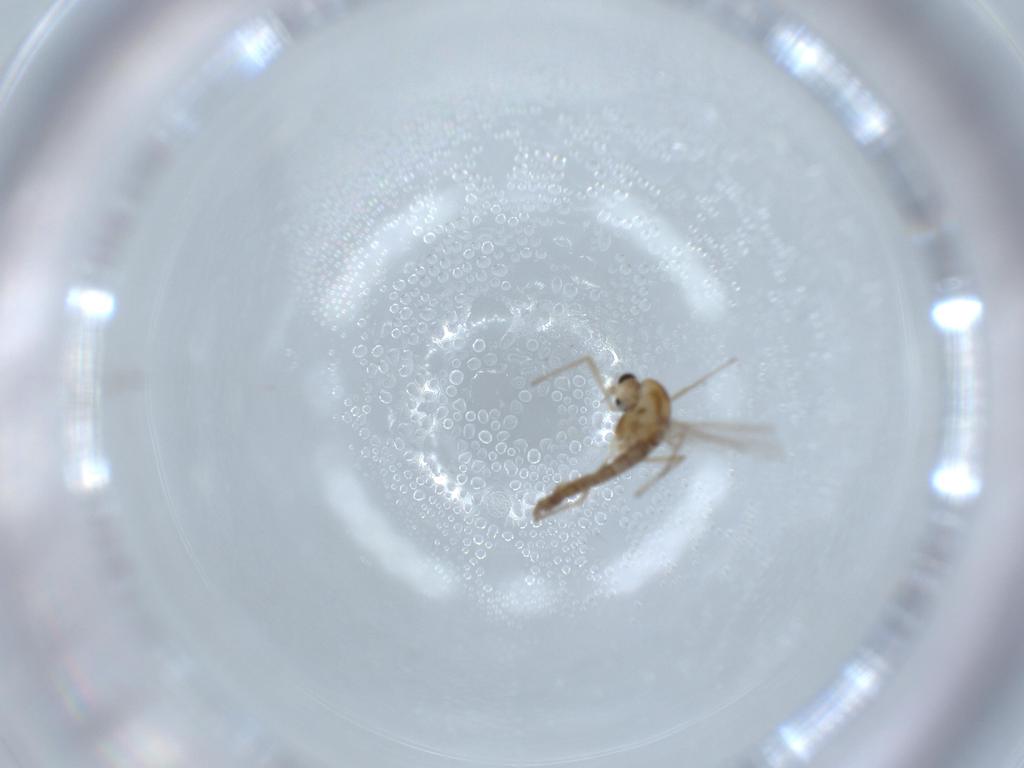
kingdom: Animalia
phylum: Arthropoda
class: Insecta
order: Diptera
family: Chironomidae
